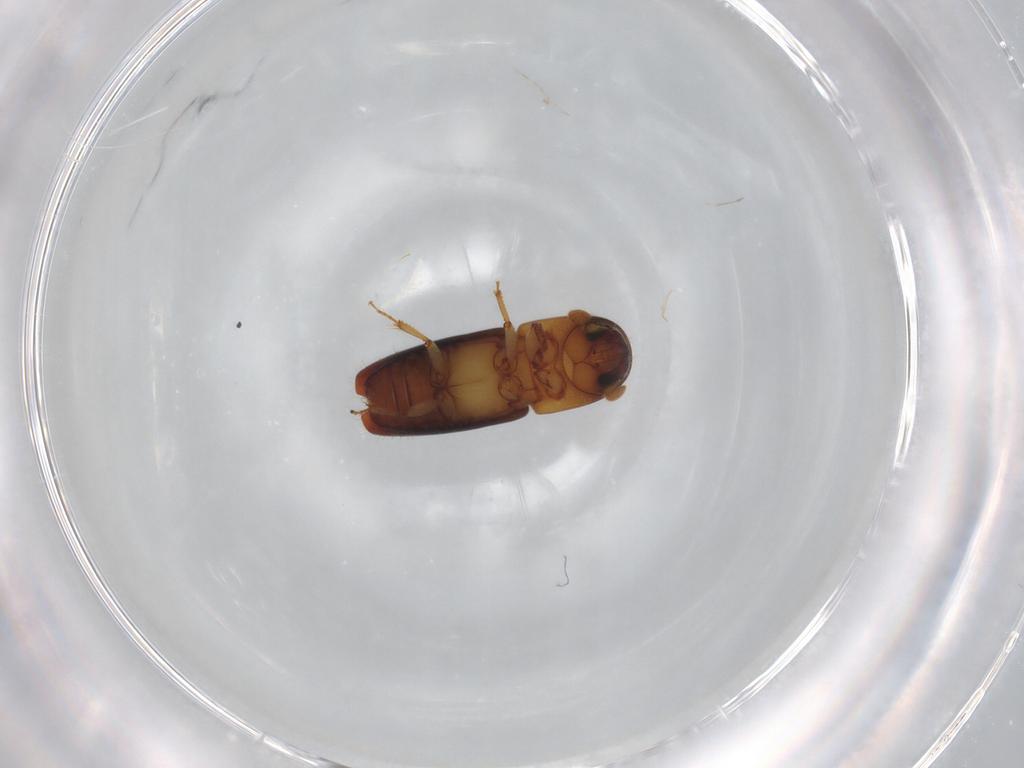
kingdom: Animalia
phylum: Arthropoda
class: Insecta
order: Coleoptera
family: Curculionidae
